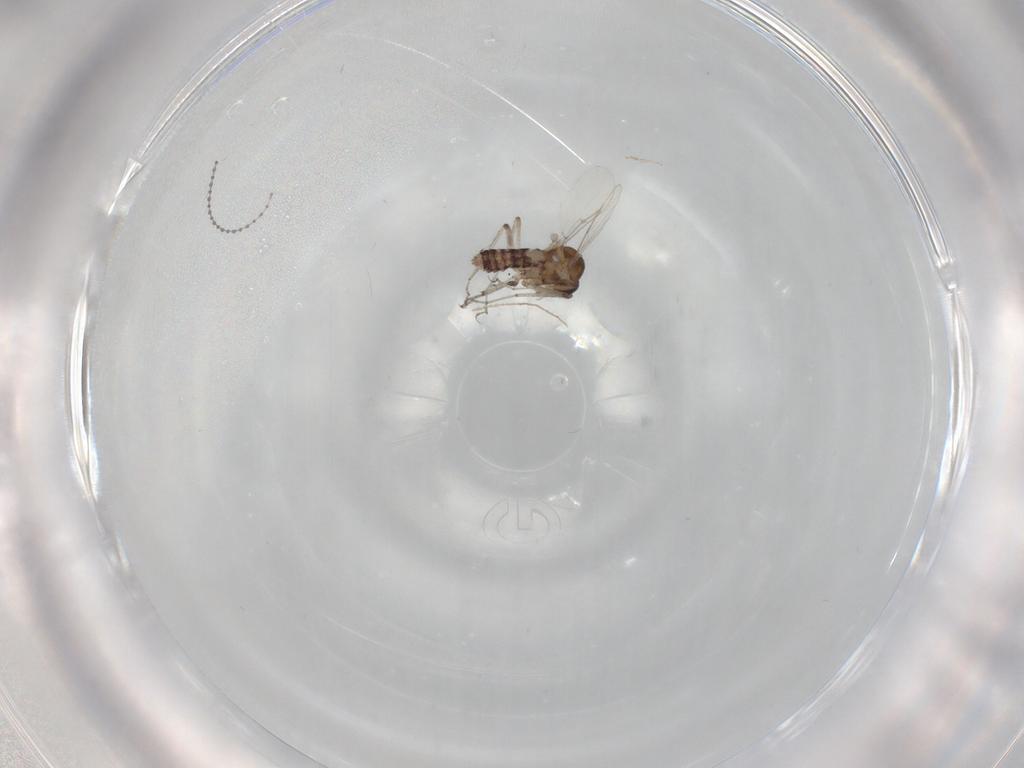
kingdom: Animalia
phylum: Arthropoda
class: Insecta
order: Diptera
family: Cecidomyiidae
